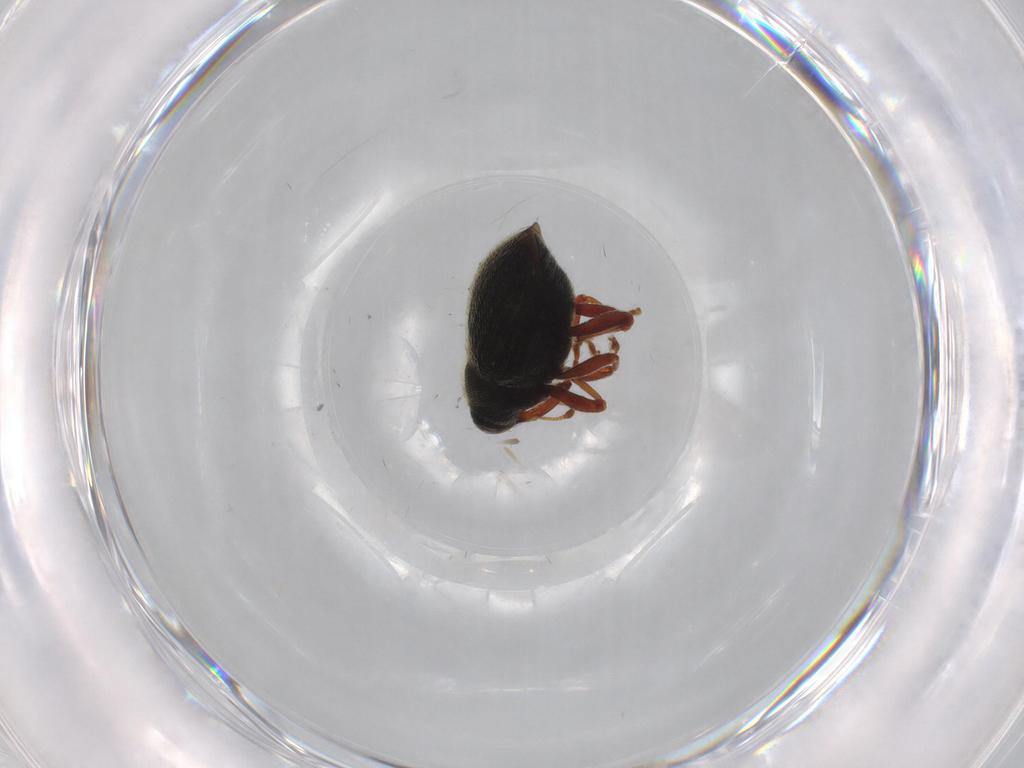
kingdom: Animalia
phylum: Arthropoda
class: Insecta
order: Coleoptera
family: Curculionidae
